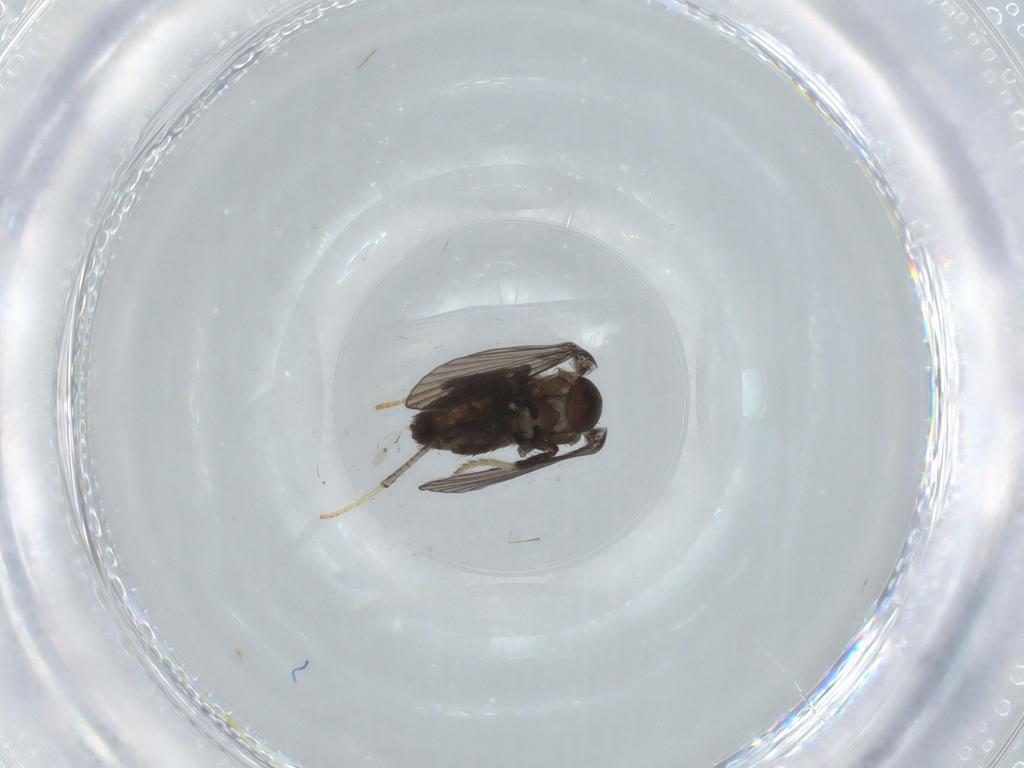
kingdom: Animalia
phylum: Arthropoda
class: Insecta
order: Diptera
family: Psychodidae
